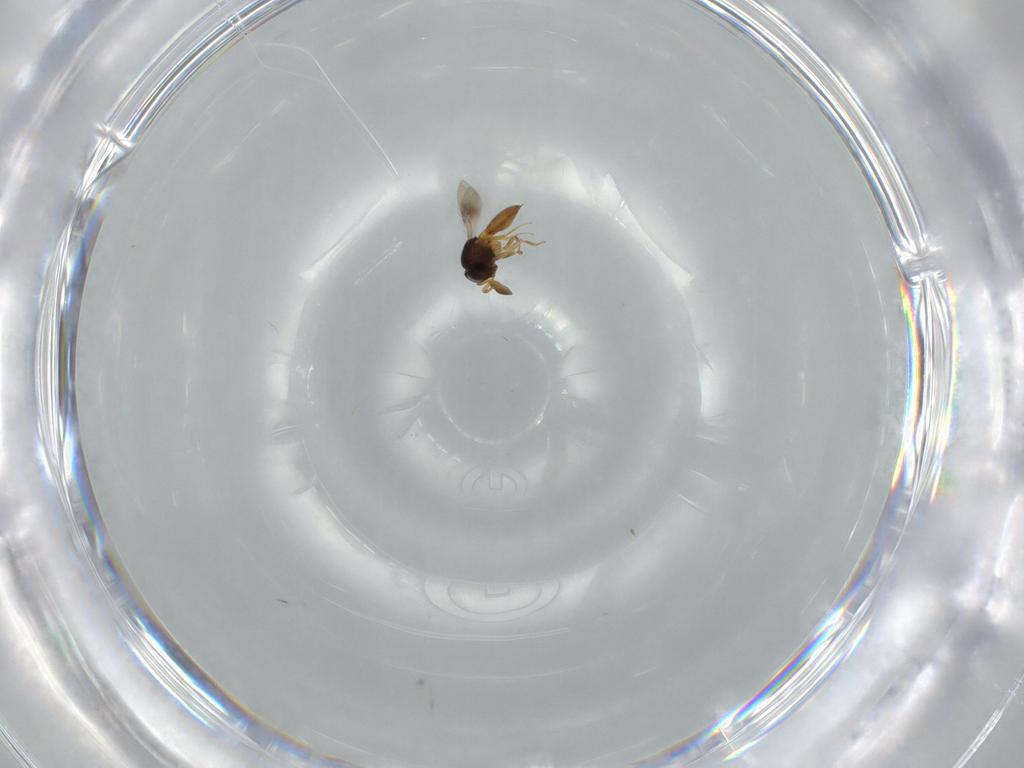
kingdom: Animalia
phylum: Arthropoda
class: Insecta
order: Hymenoptera
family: Scelionidae
